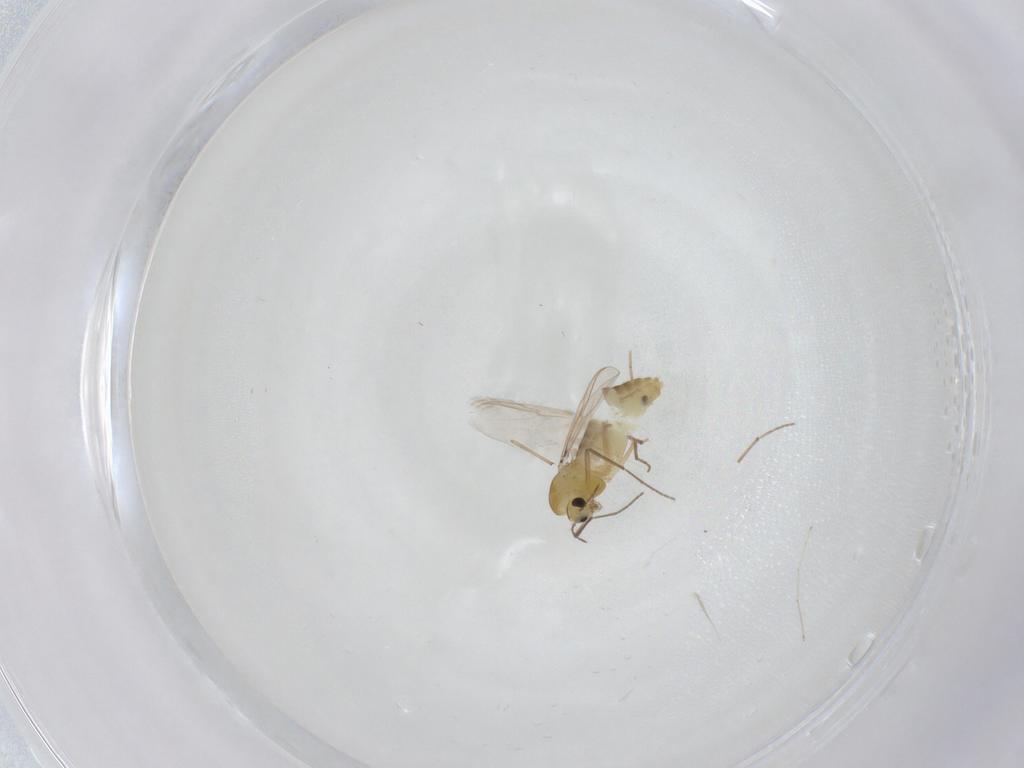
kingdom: Animalia
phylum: Arthropoda
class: Insecta
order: Diptera
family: Chironomidae
